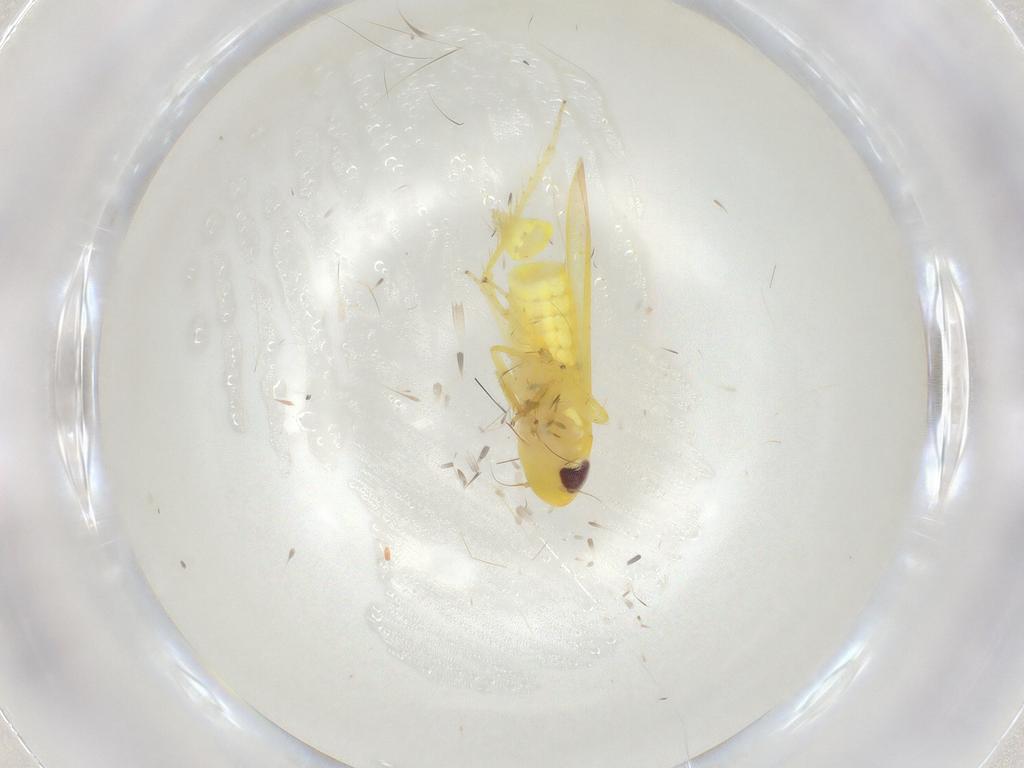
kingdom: Animalia
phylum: Arthropoda
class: Insecta
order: Hemiptera
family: Cicadellidae
